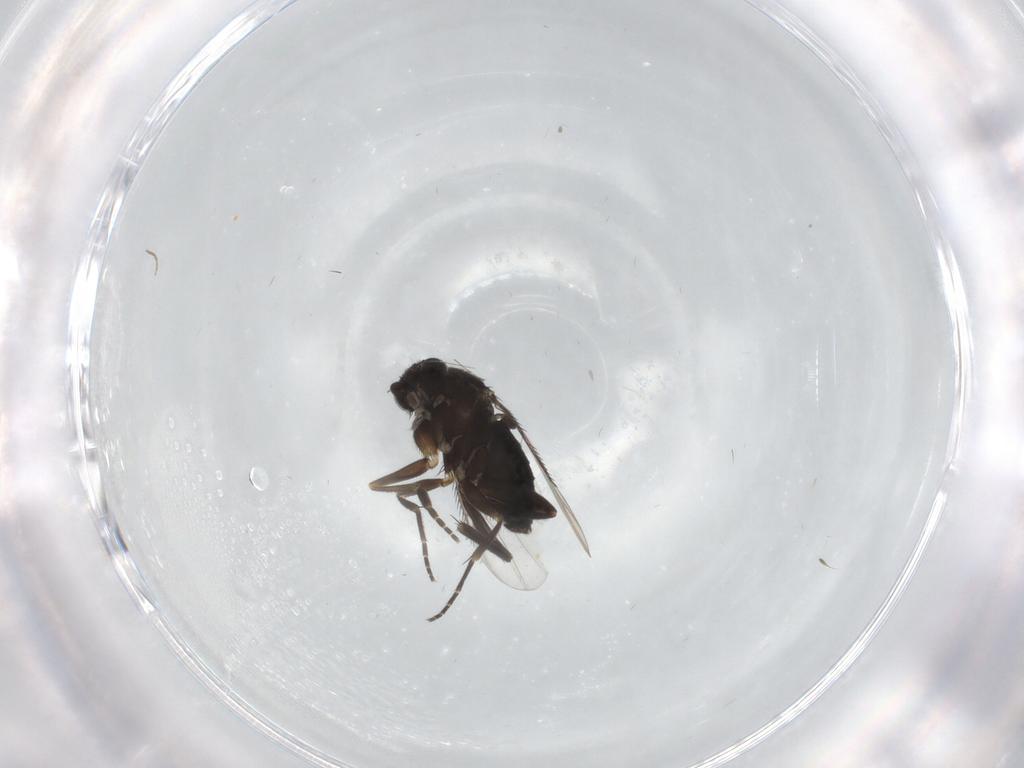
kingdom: Animalia
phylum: Arthropoda
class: Insecta
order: Diptera
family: Phoridae
